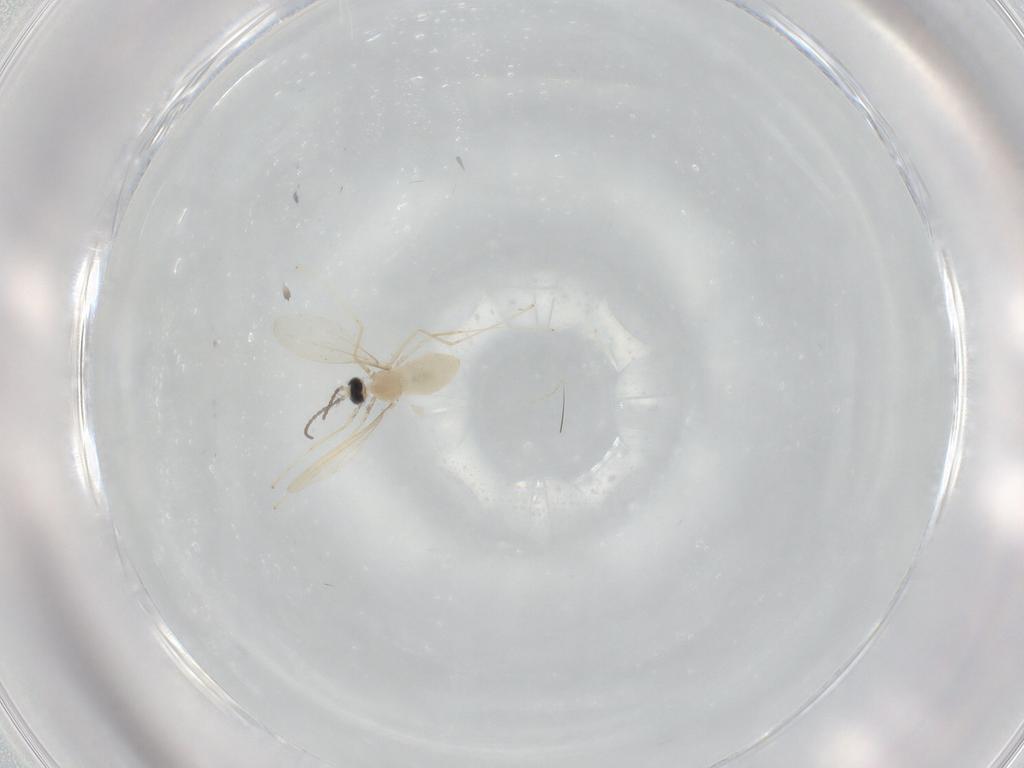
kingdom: Animalia
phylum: Arthropoda
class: Insecta
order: Diptera
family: Cecidomyiidae
